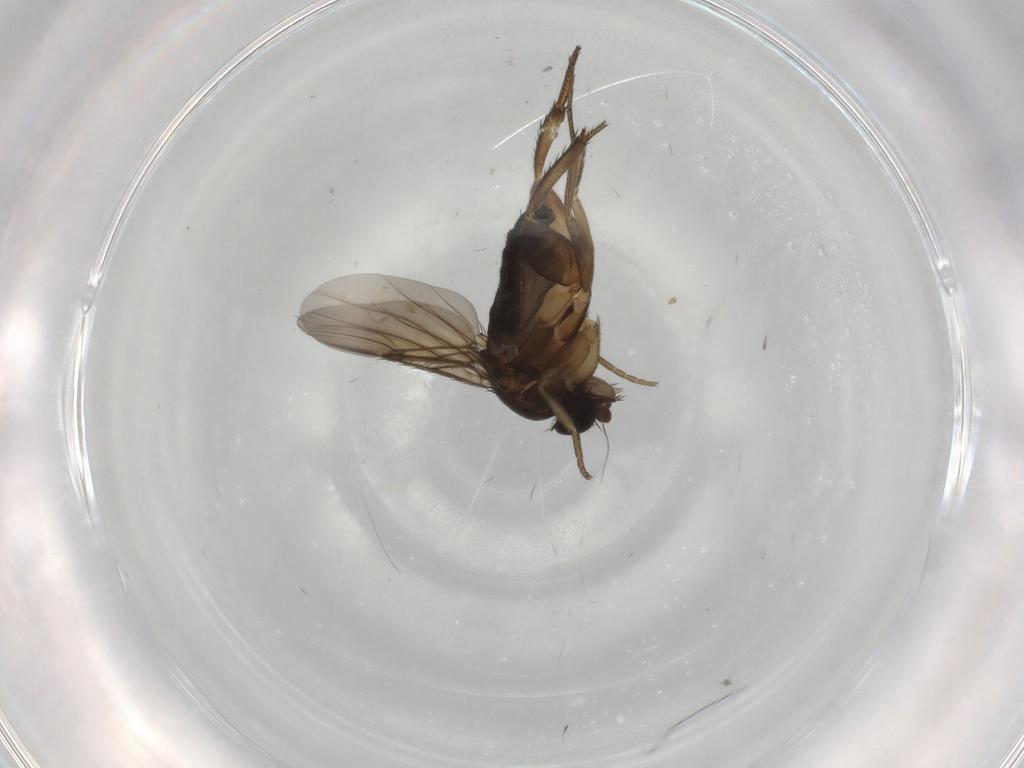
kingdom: Animalia
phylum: Arthropoda
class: Insecta
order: Diptera
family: Phoridae
